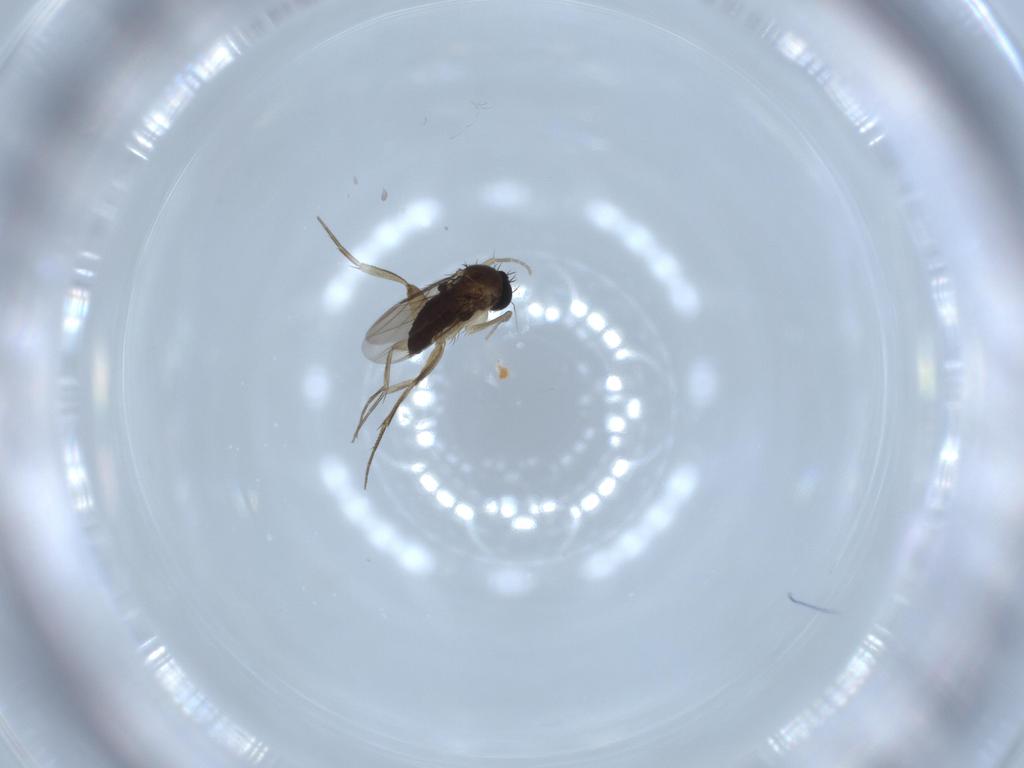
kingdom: Animalia
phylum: Arthropoda
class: Insecta
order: Diptera
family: Phoridae
